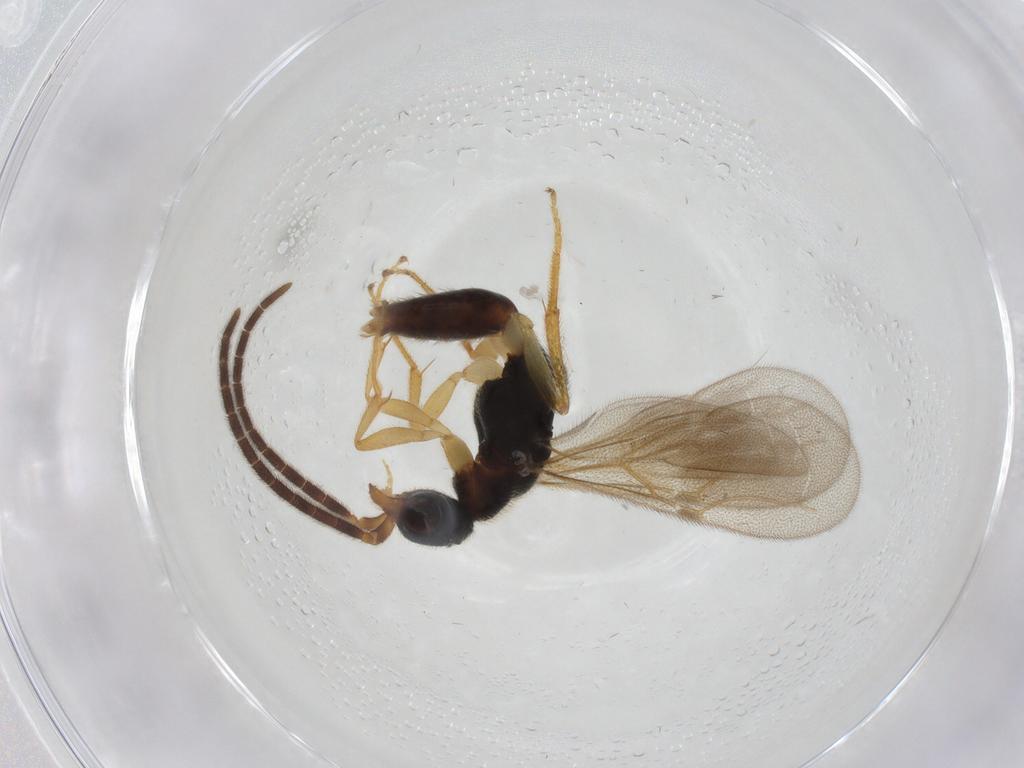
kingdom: Animalia
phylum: Arthropoda
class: Insecta
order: Hymenoptera
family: Bethylidae
